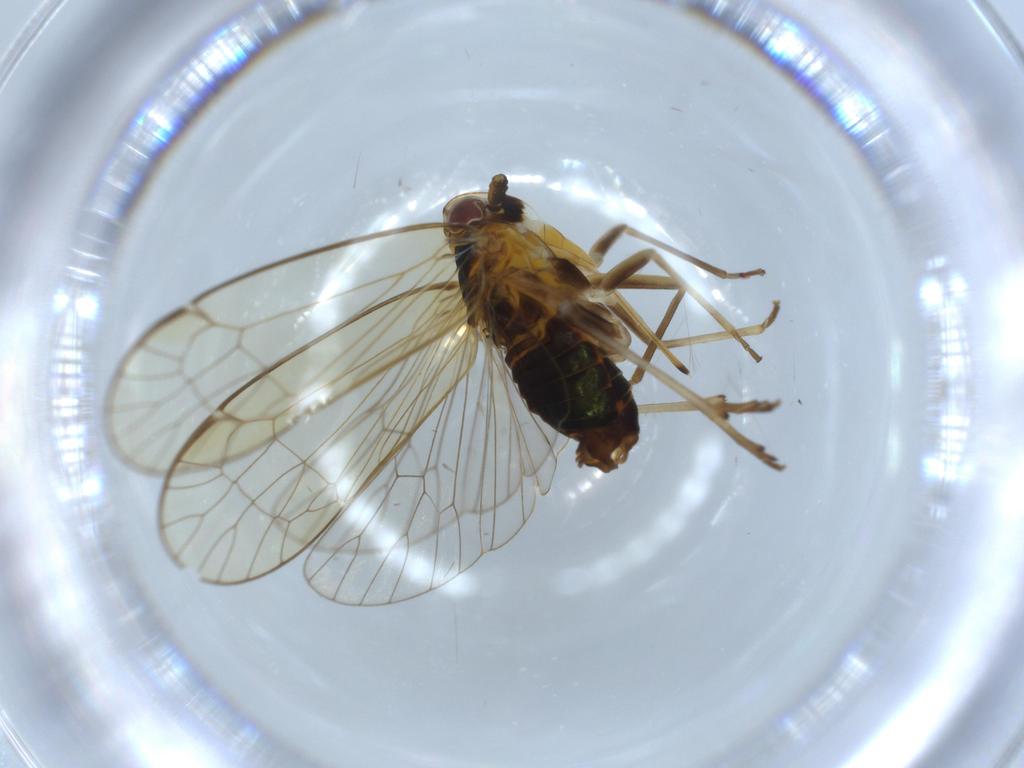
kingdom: Animalia
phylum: Arthropoda
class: Insecta
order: Hemiptera
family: Kinnaridae
